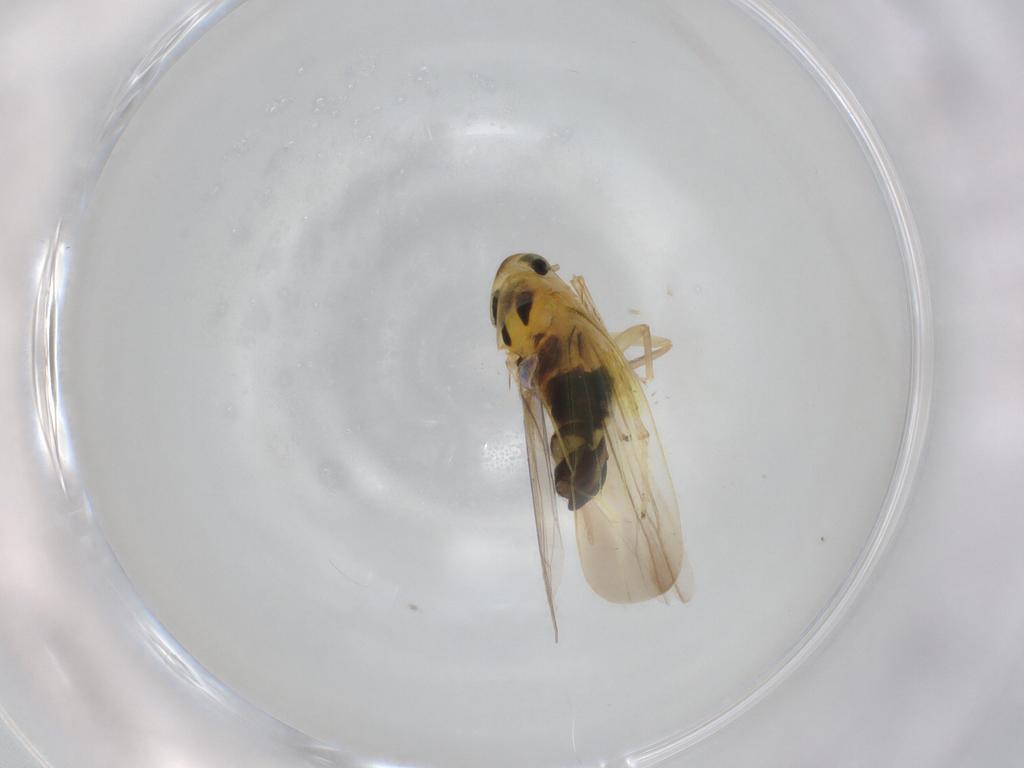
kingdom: Animalia
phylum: Arthropoda
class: Insecta
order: Hemiptera
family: Cicadellidae
